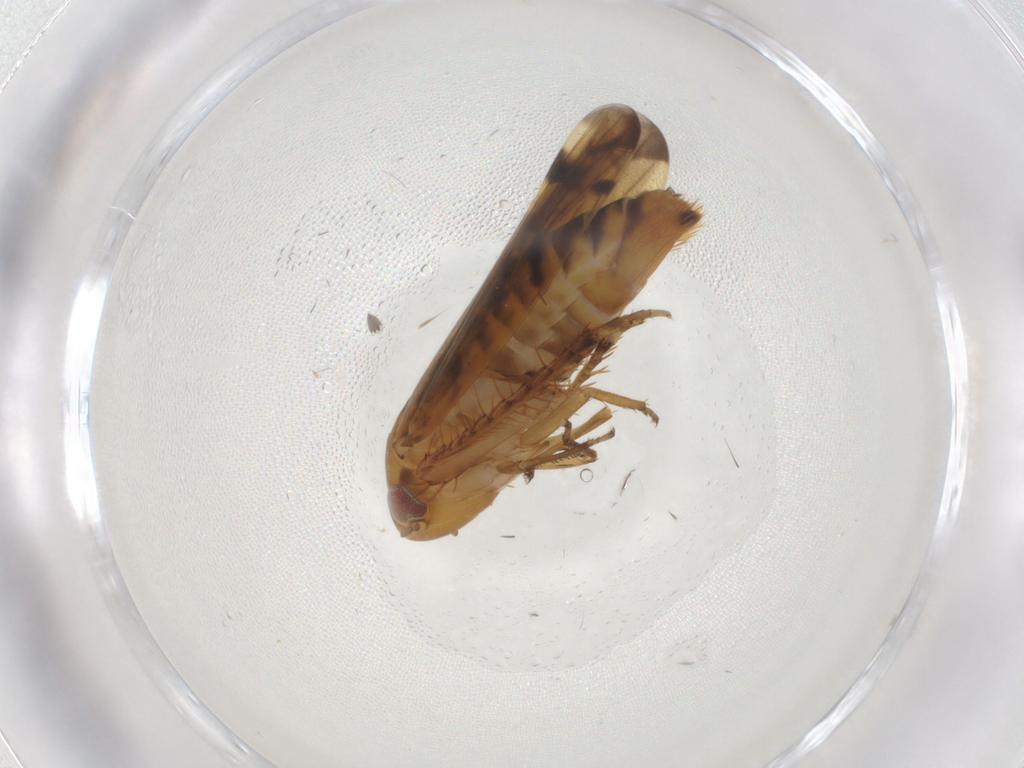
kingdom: Animalia
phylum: Arthropoda
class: Insecta
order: Hemiptera
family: Cicadellidae
